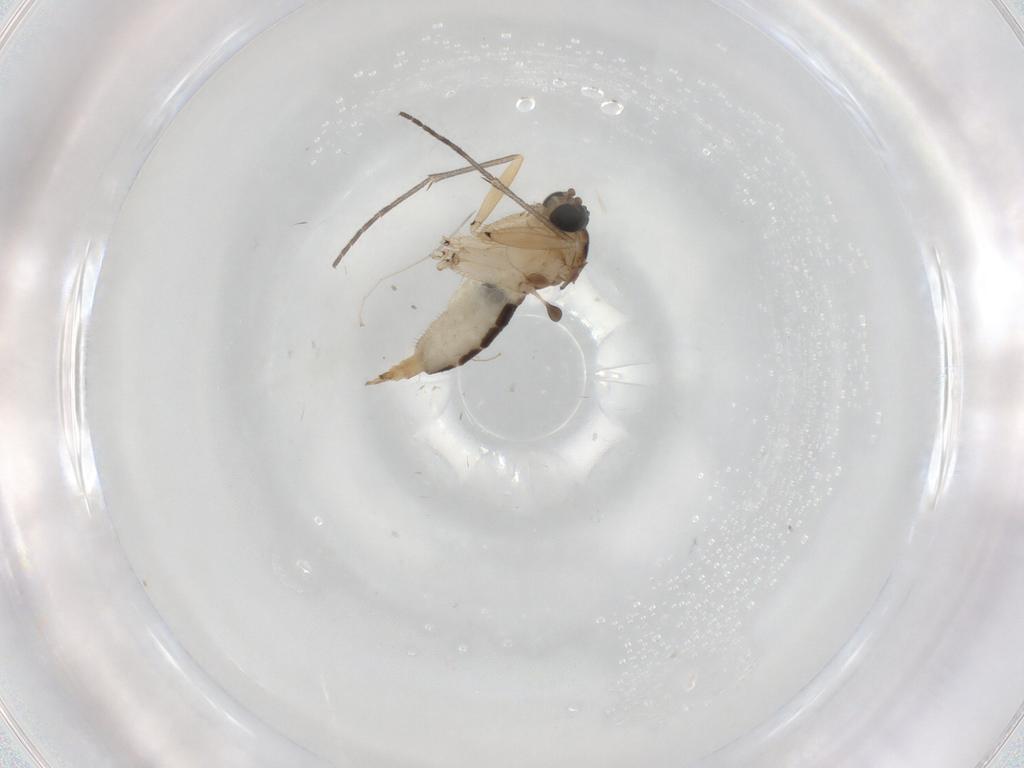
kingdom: Animalia
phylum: Arthropoda
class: Insecta
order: Diptera
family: Sciaridae
